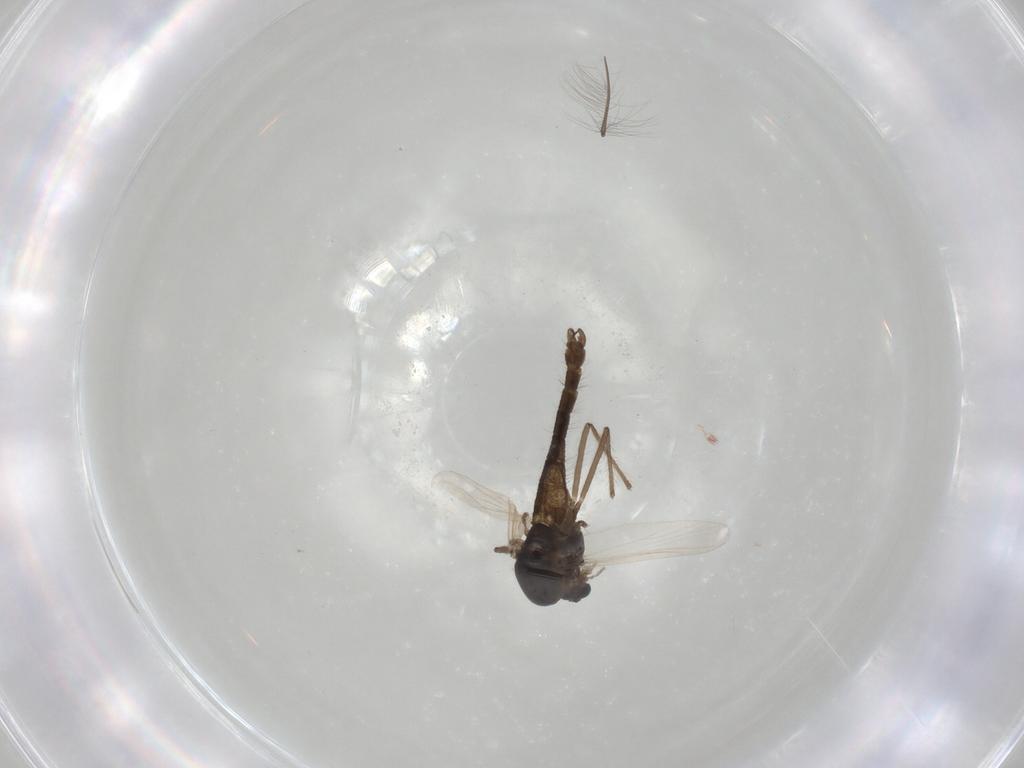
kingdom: Animalia
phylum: Arthropoda
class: Insecta
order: Diptera
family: Chironomidae
